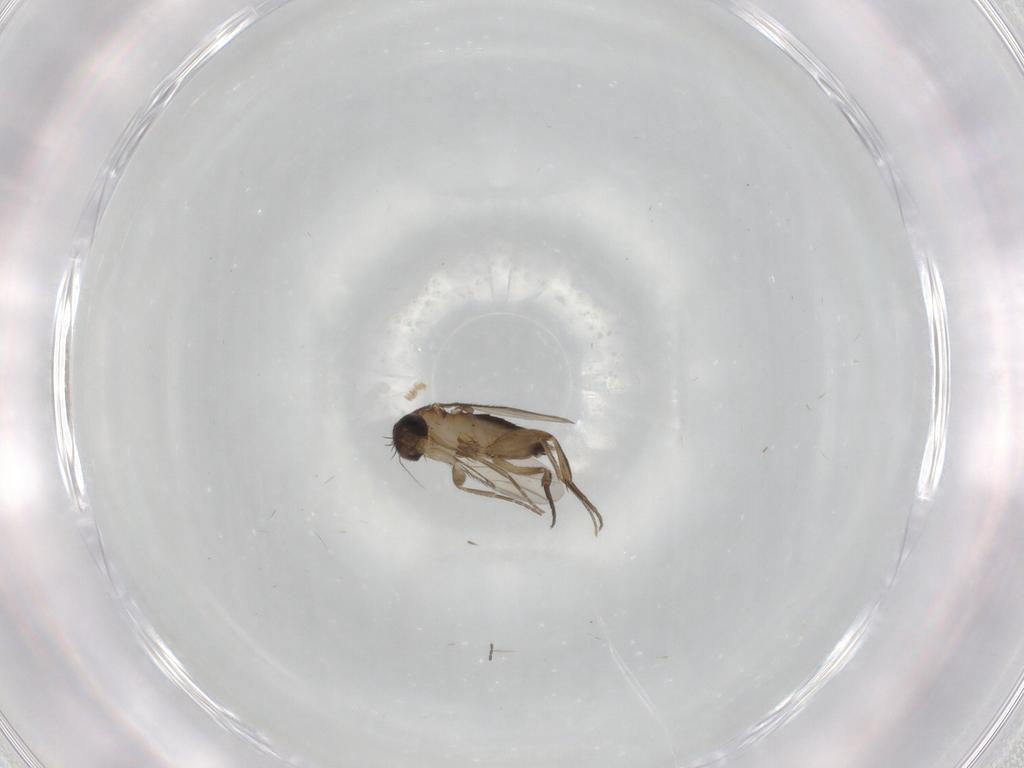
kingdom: Animalia
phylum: Arthropoda
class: Insecta
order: Diptera
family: Phoridae
